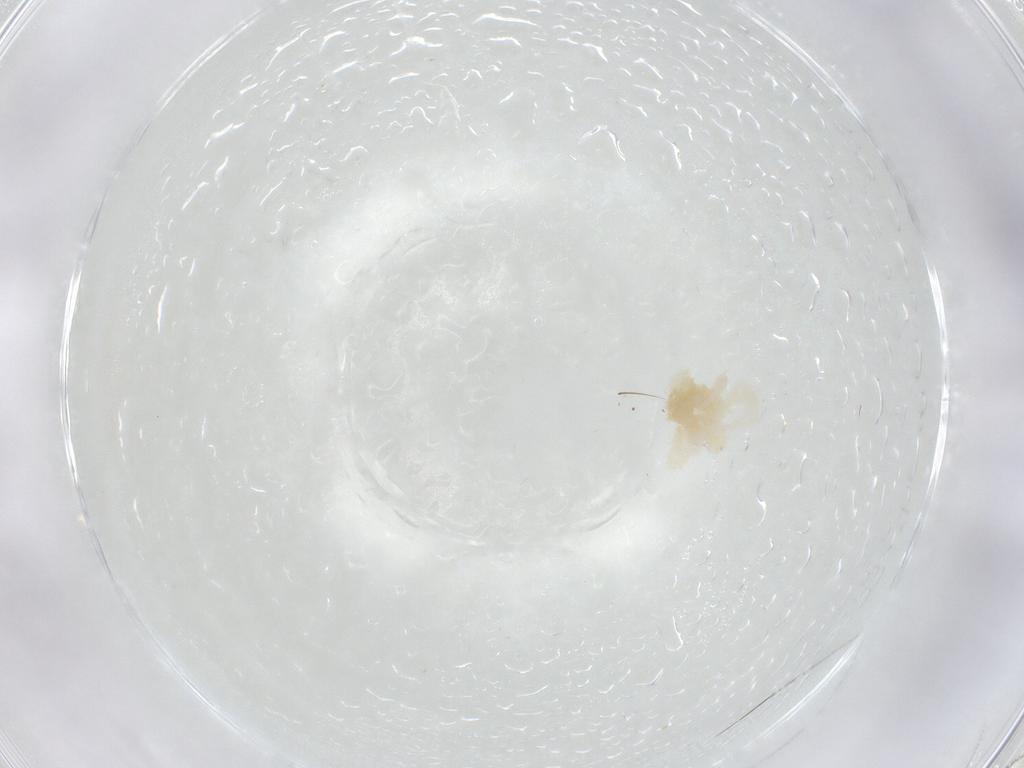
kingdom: Animalia
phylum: Arthropoda
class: Arachnida
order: Trombidiformes
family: Anystidae
